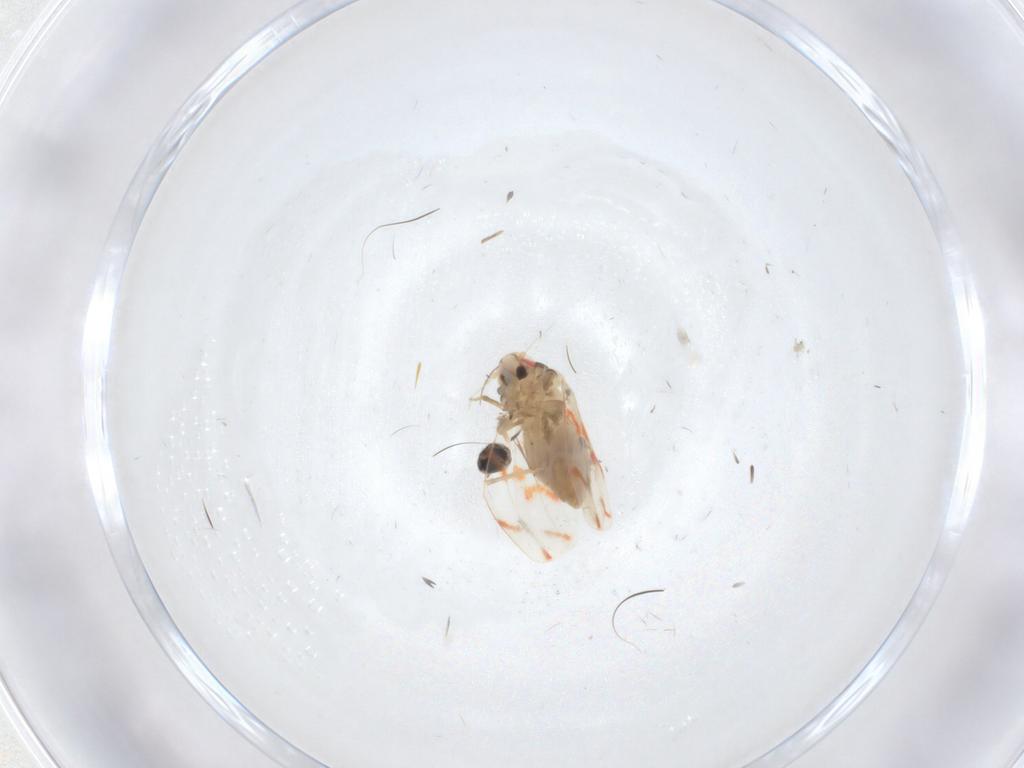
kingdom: Animalia
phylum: Arthropoda
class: Insecta
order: Hemiptera
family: Aleyrodidae
